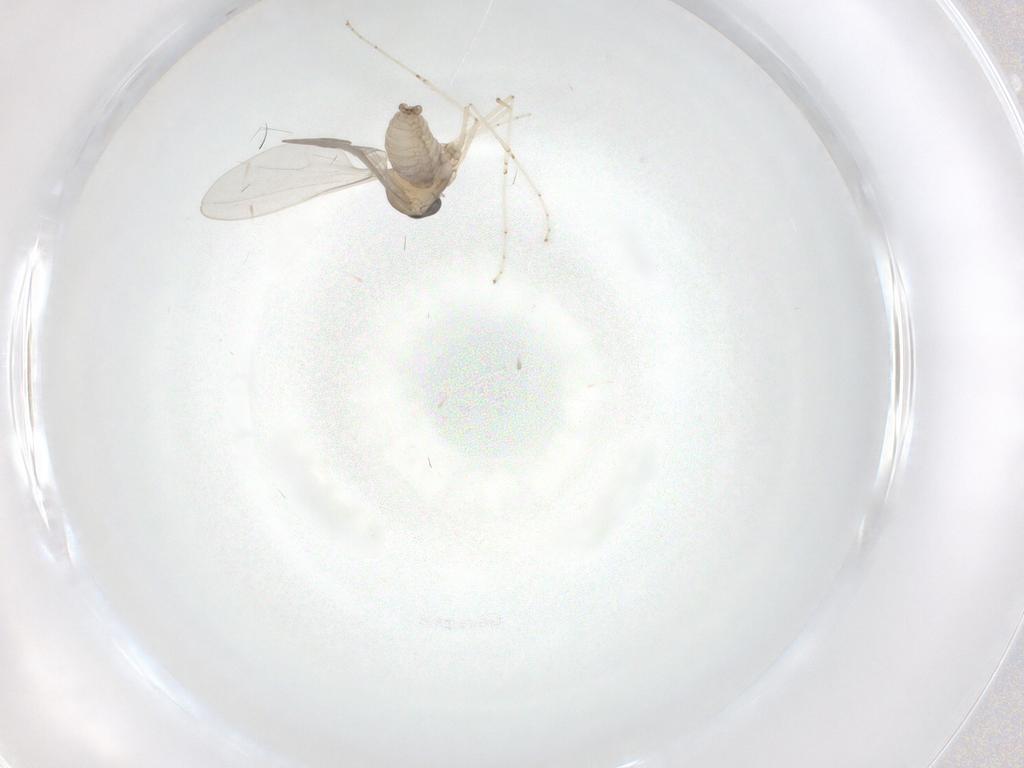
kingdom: Animalia
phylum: Arthropoda
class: Insecta
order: Diptera
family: Cecidomyiidae
